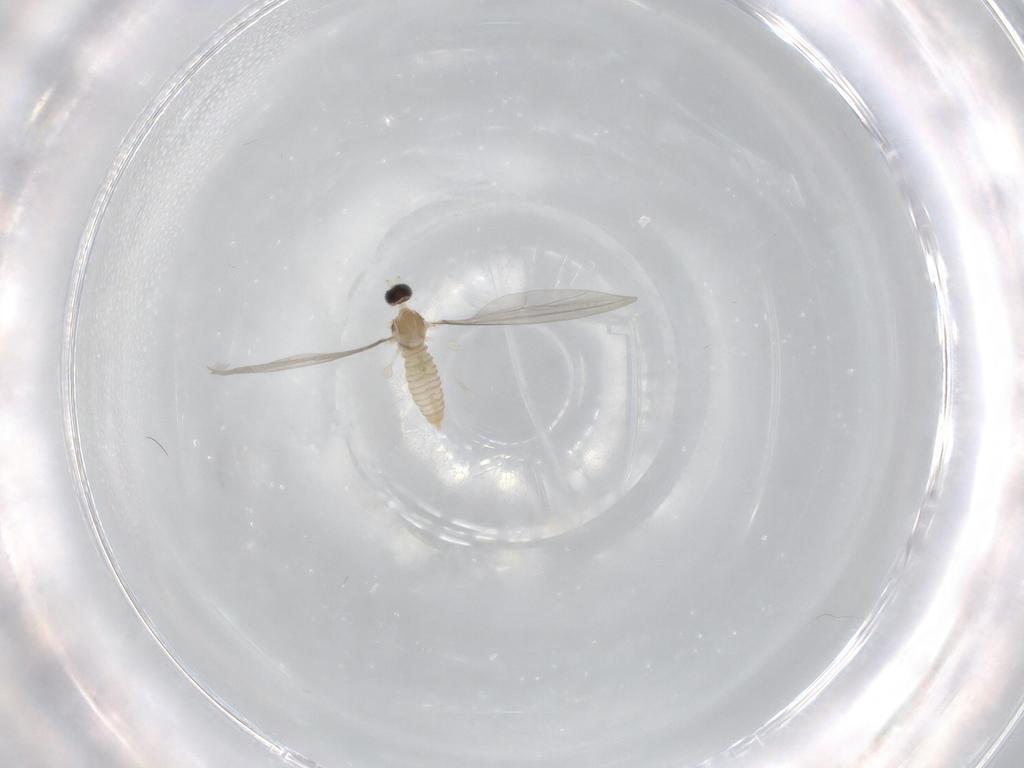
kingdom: Animalia
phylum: Arthropoda
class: Insecta
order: Diptera
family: Cecidomyiidae
